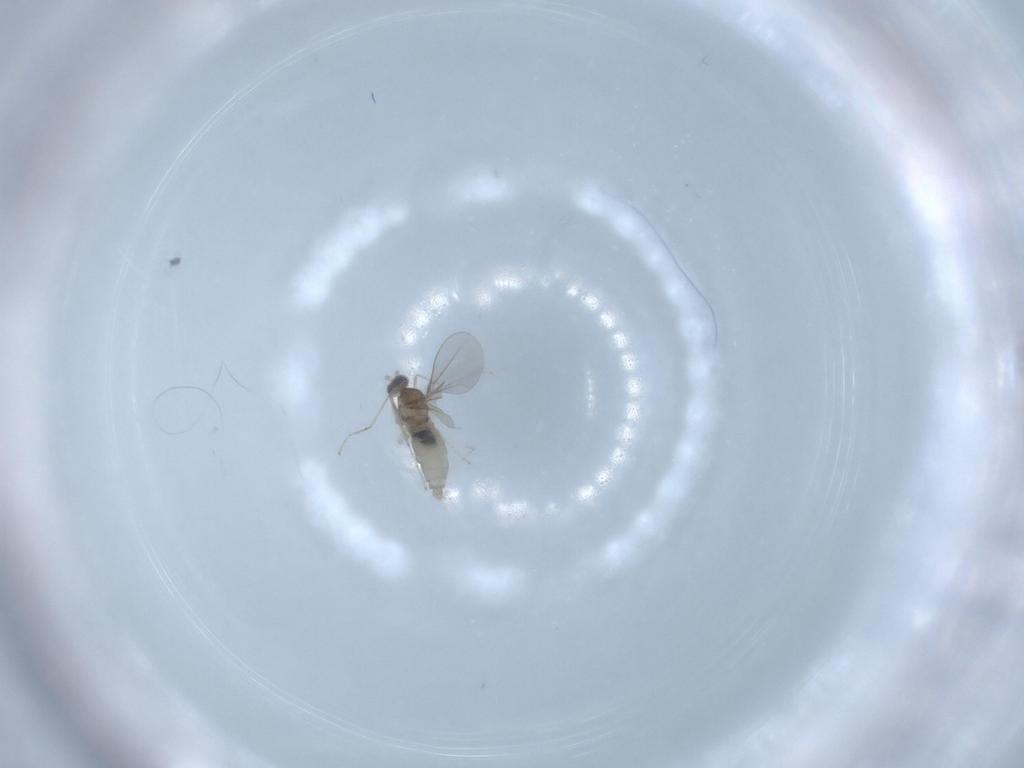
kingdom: Animalia
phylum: Arthropoda
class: Insecta
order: Diptera
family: Cecidomyiidae
